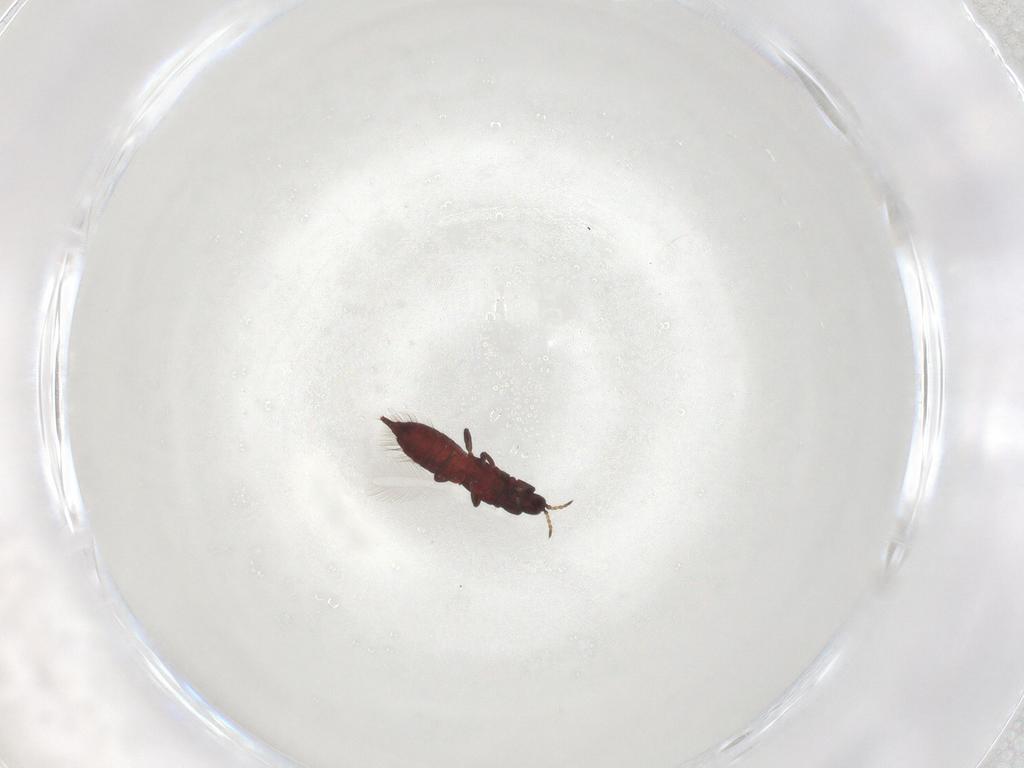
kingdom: Animalia
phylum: Arthropoda
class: Insecta
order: Thysanoptera
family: Phlaeothripidae
